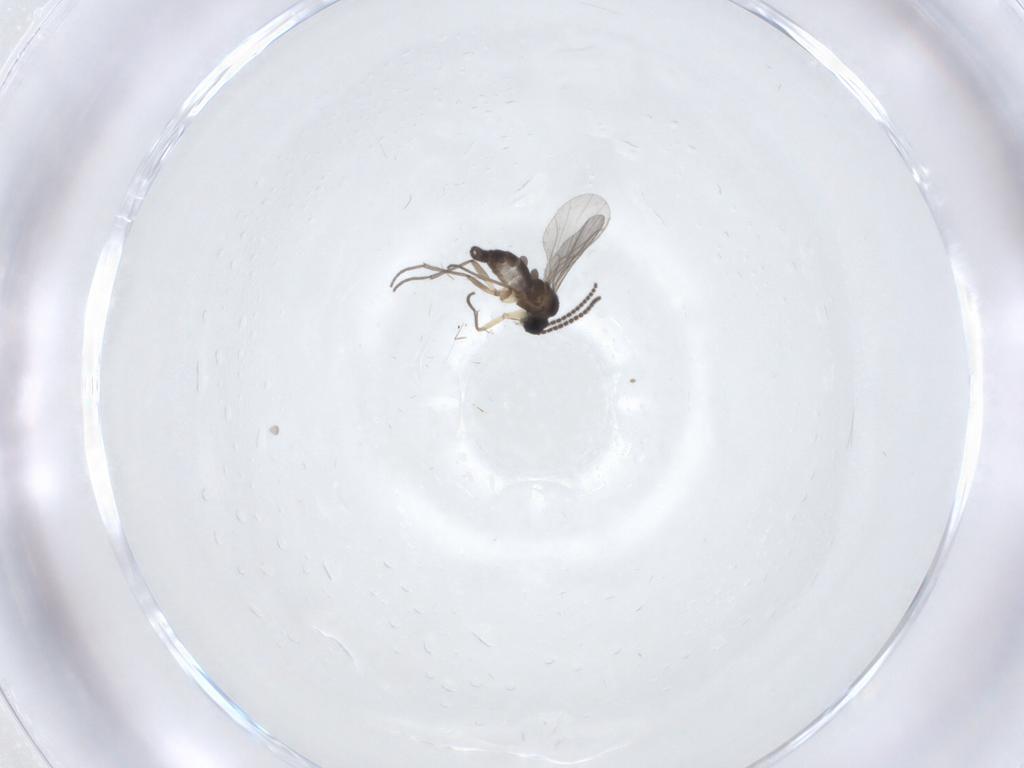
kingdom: Animalia
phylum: Arthropoda
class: Insecta
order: Diptera
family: Sciaridae
